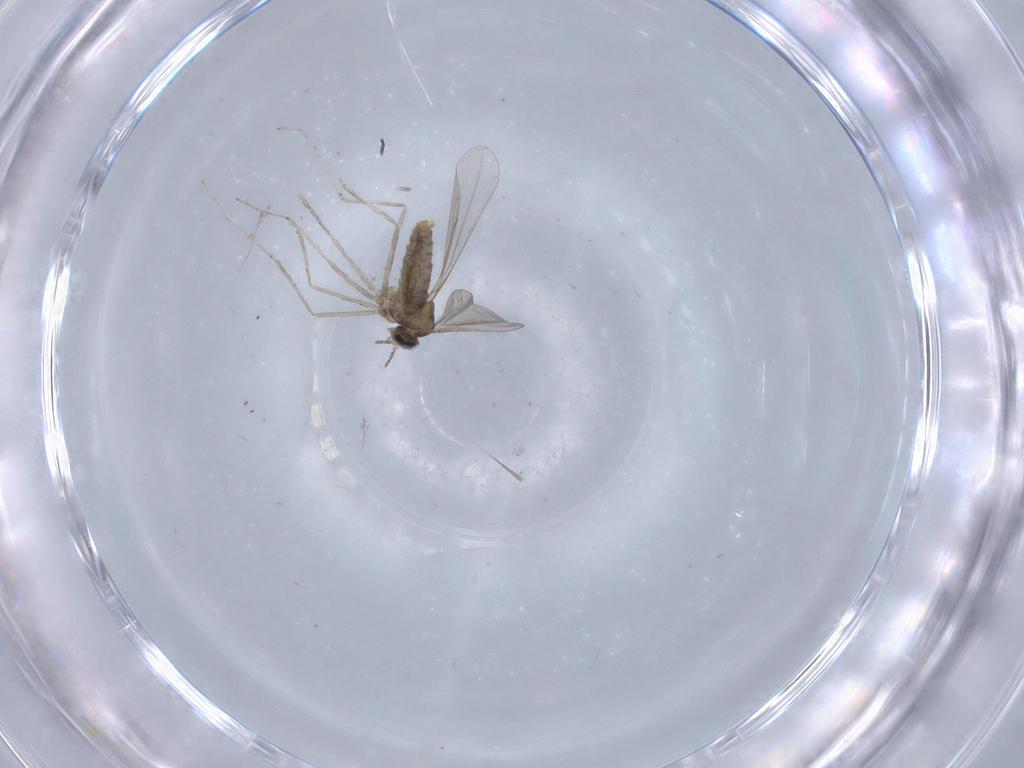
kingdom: Animalia
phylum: Arthropoda
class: Insecta
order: Diptera
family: Cecidomyiidae
